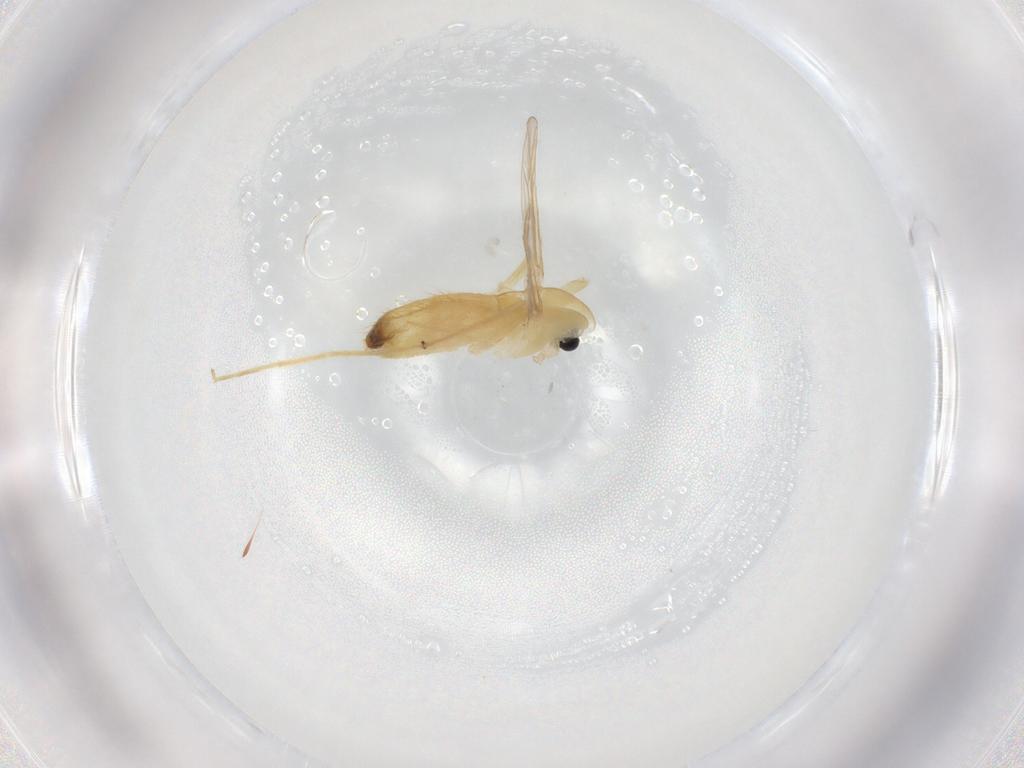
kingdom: Animalia
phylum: Arthropoda
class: Insecta
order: Diptera
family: Chironomidae
